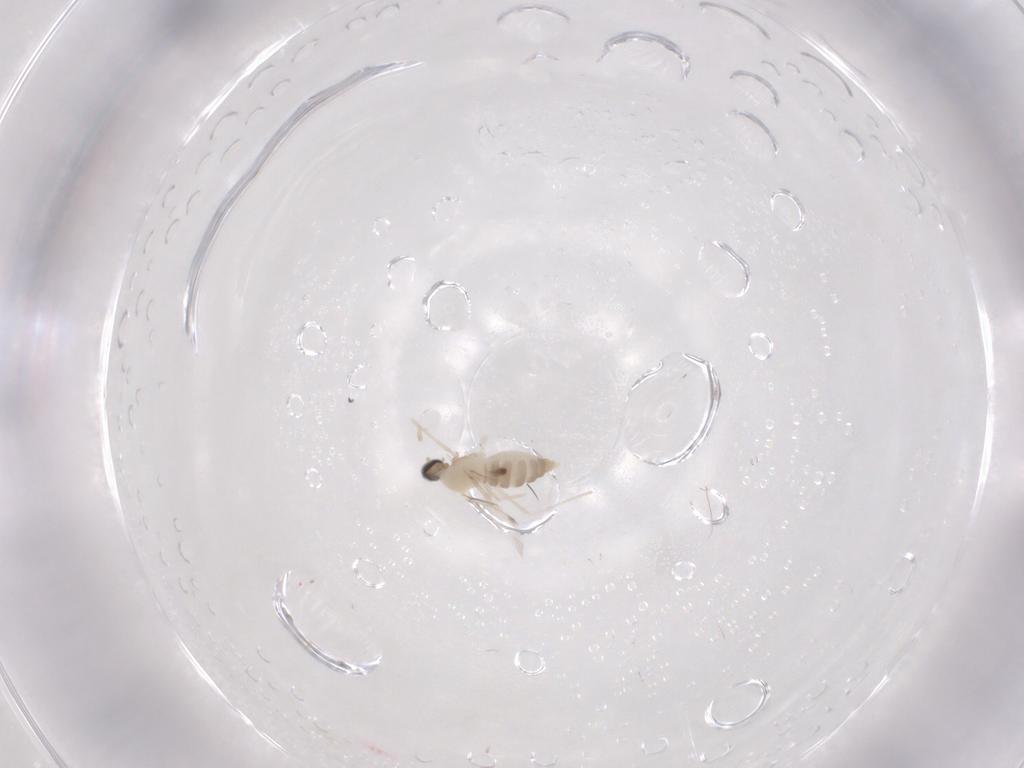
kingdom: Animalia
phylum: Arthropoda
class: Insecta
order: Diptera
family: Cecidomyiidae
